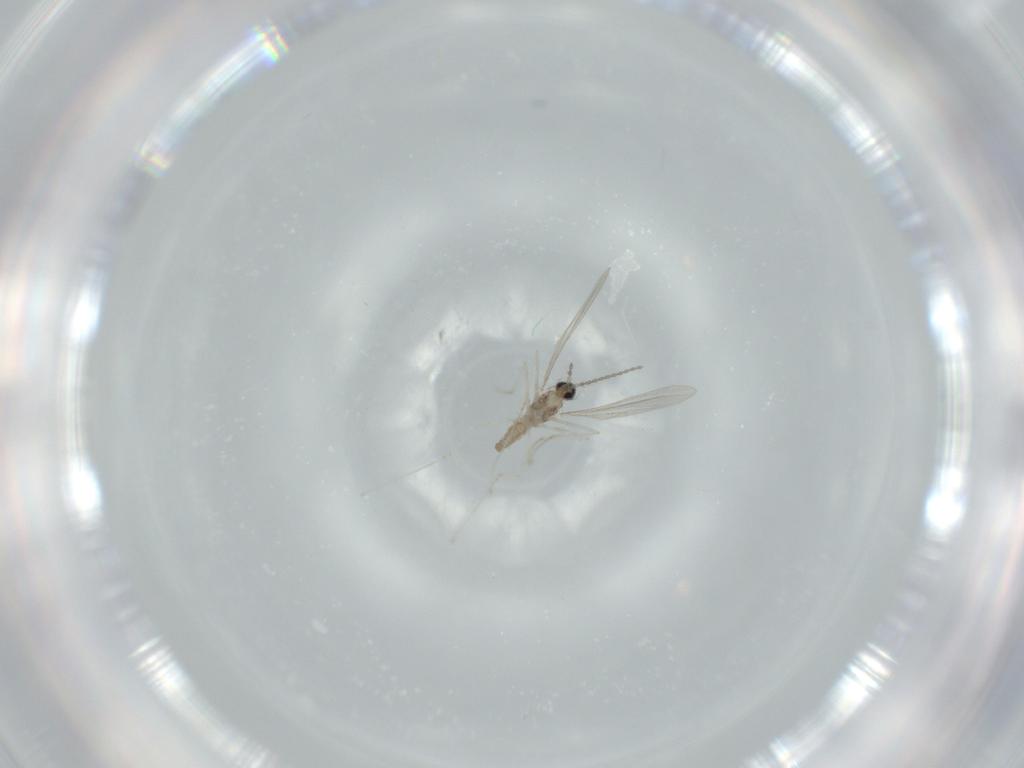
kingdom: Animalia
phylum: Arthropoda
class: Insecta
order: Diptera
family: Cecidomyiidae
